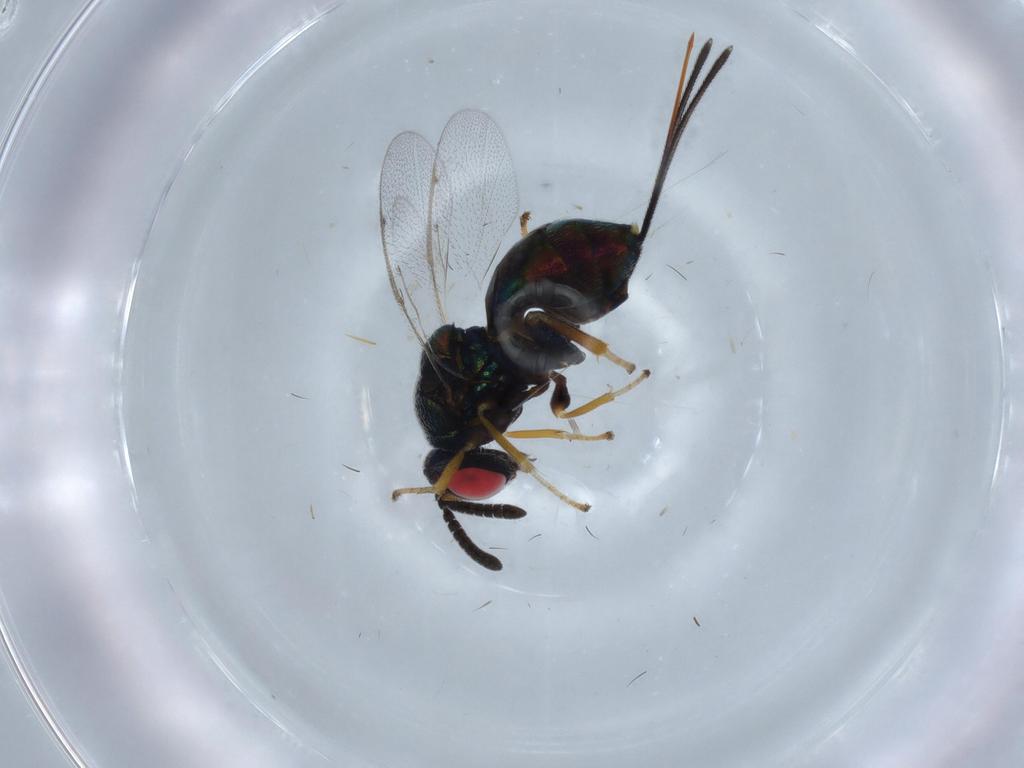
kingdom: Animalia
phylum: Arthropoda
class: Insecta
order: Hymenoptera
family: Torymidae
